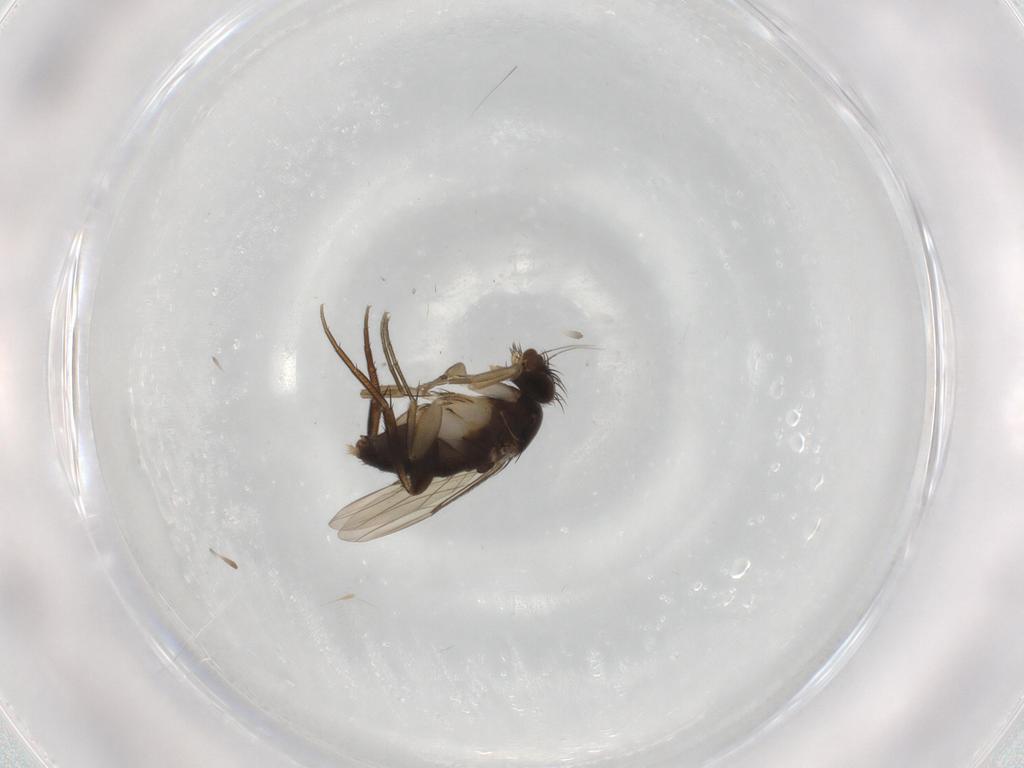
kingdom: Animalia
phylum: Arthropoda
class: Insecta
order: Diptera
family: Phoridae
